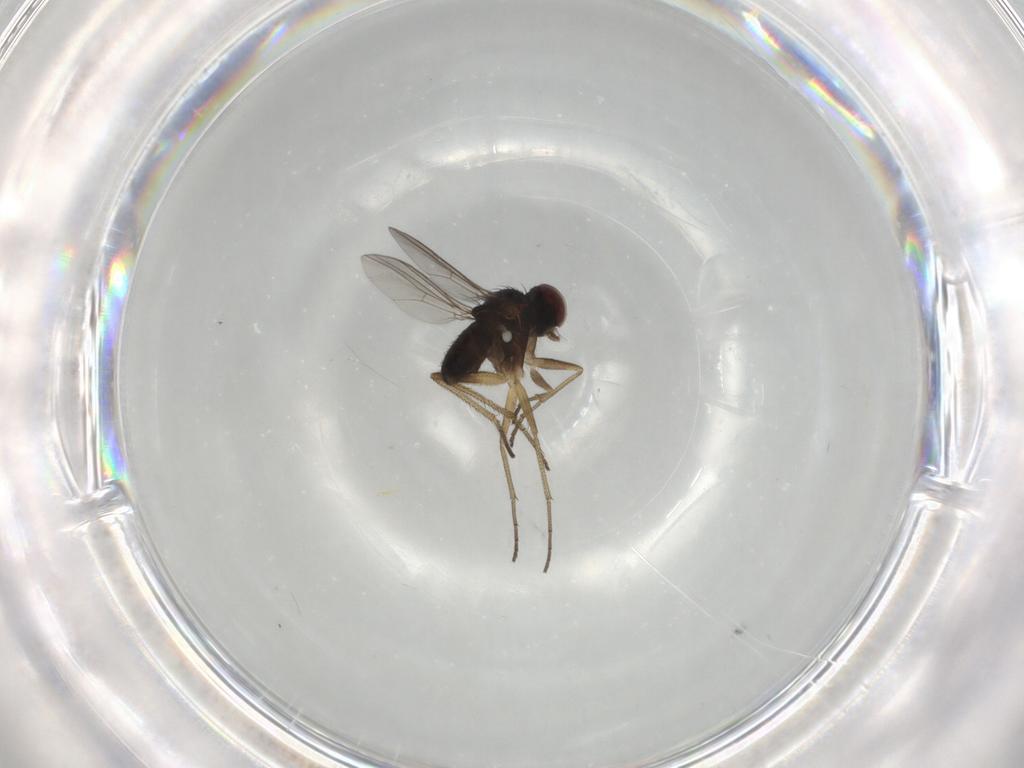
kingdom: Animalia
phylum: Arthropoda
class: Insecta
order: Diptera
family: Dolichopodidae
